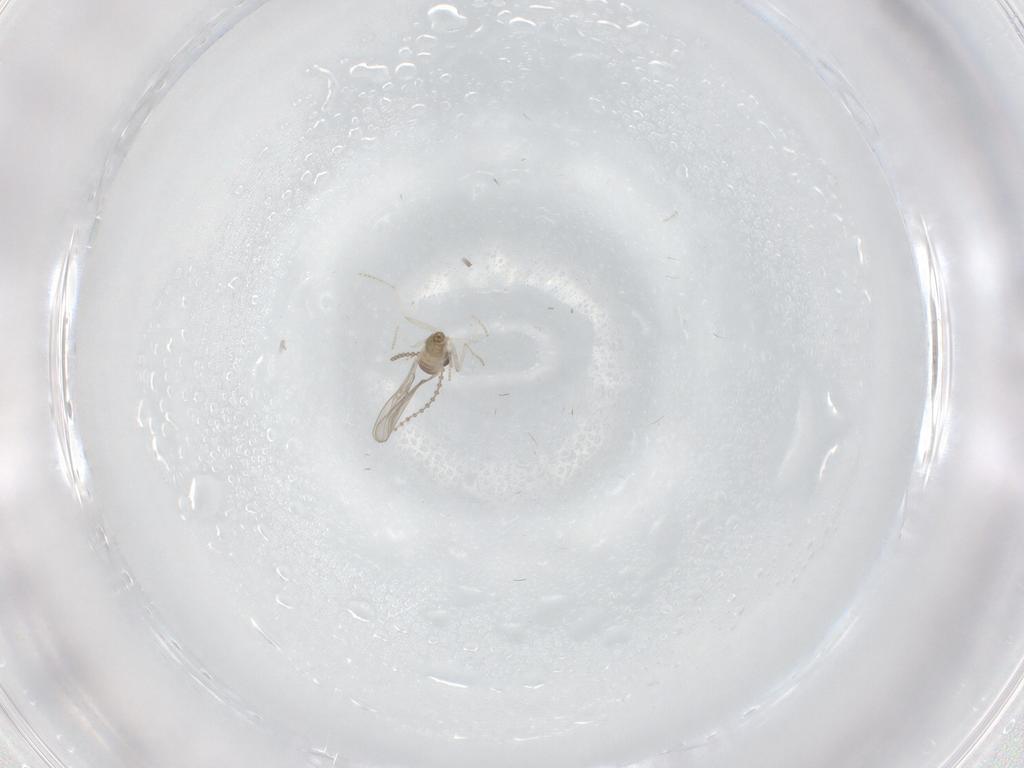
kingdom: Animalia
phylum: Arthropoda
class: Insecta
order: Diptera
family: Cecidomyiidae
